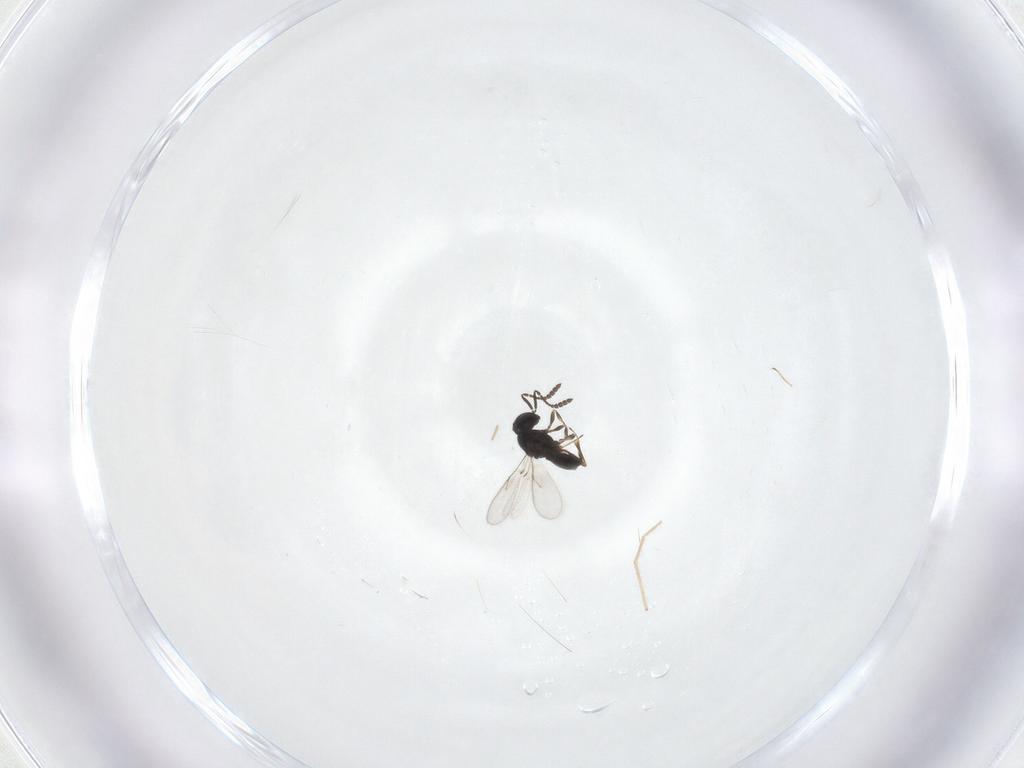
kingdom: Animalia
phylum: Arthropoda
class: Insecta
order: Hymenoptera
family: Scelionidae
